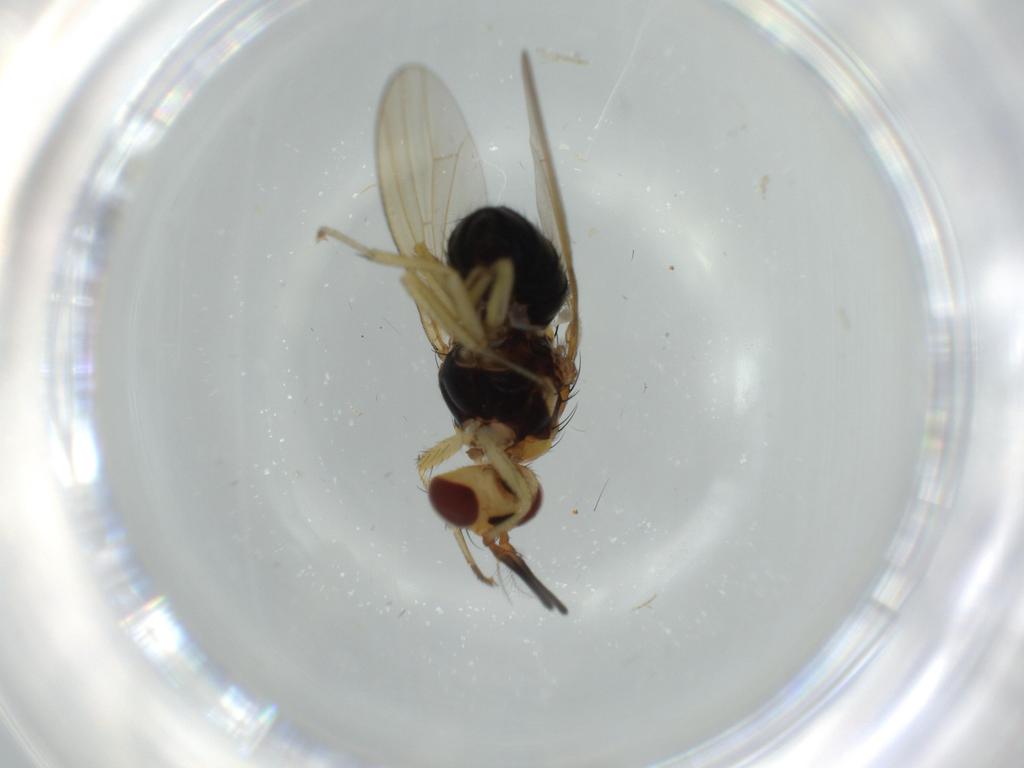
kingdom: Animalia
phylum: Arthropoda
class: Insecta
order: Diptera
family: Lauxaniidae
